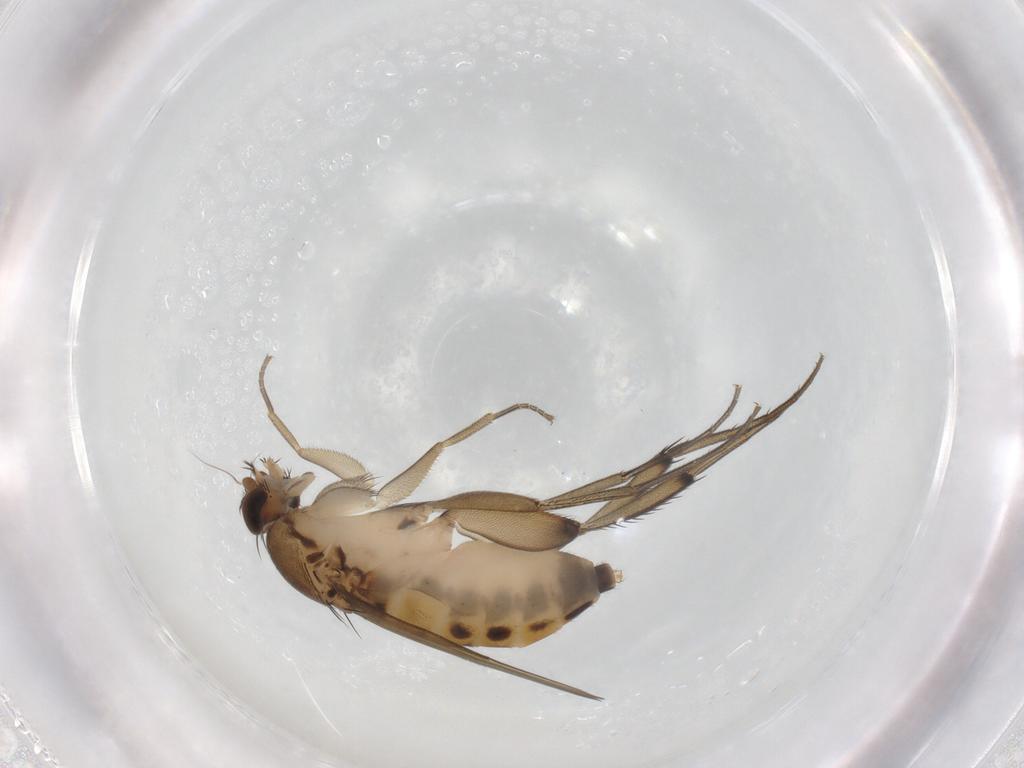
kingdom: Animalia
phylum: Arthropoda
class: Insecta
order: Diptera
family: Phoridae
